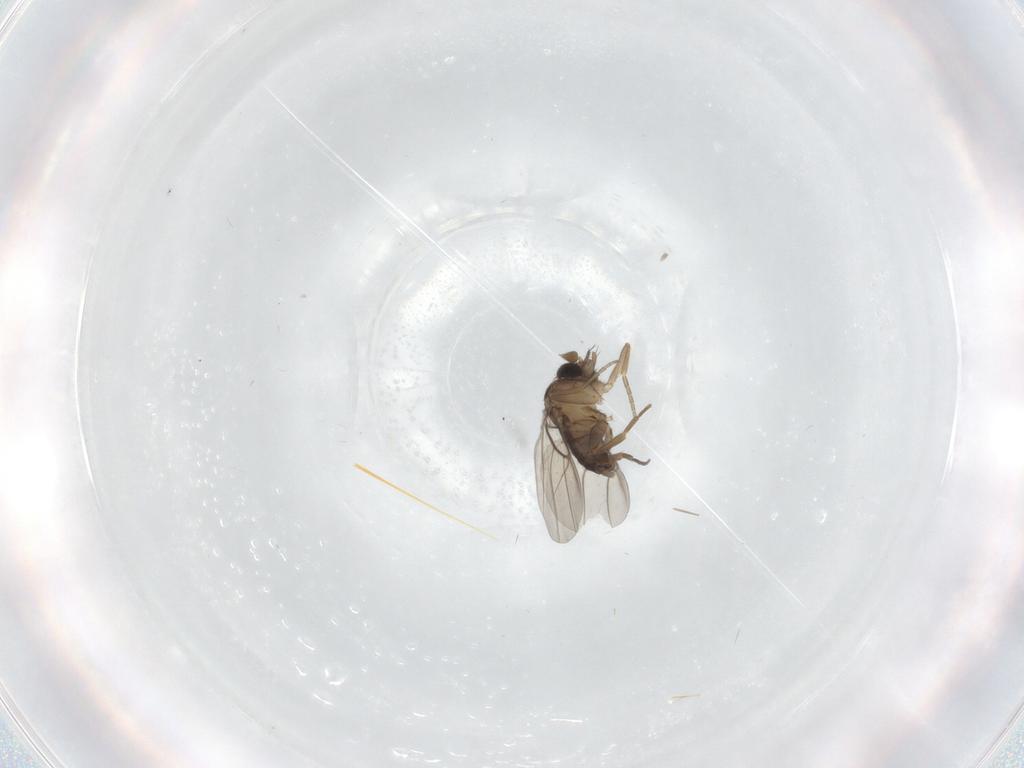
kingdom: Animalia
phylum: Arthropoda
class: Insecta
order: Diptera
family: Phoridae
